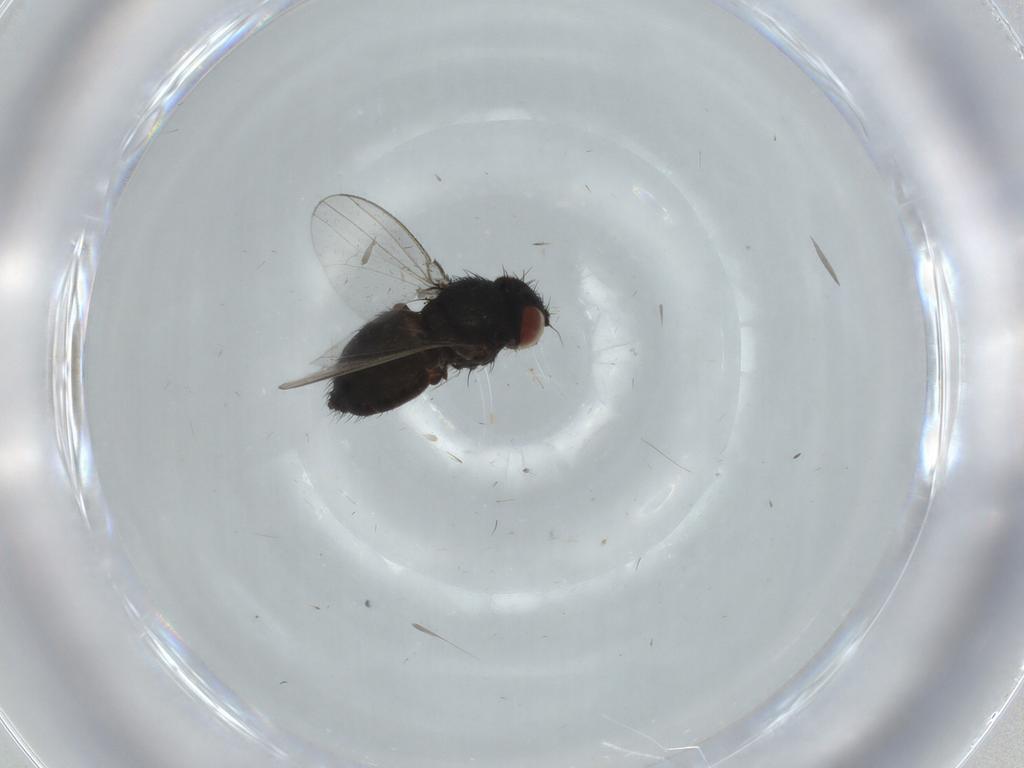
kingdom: Animalia
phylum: Arthropoda
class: Insecta
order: Diptera
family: Milichiidae
